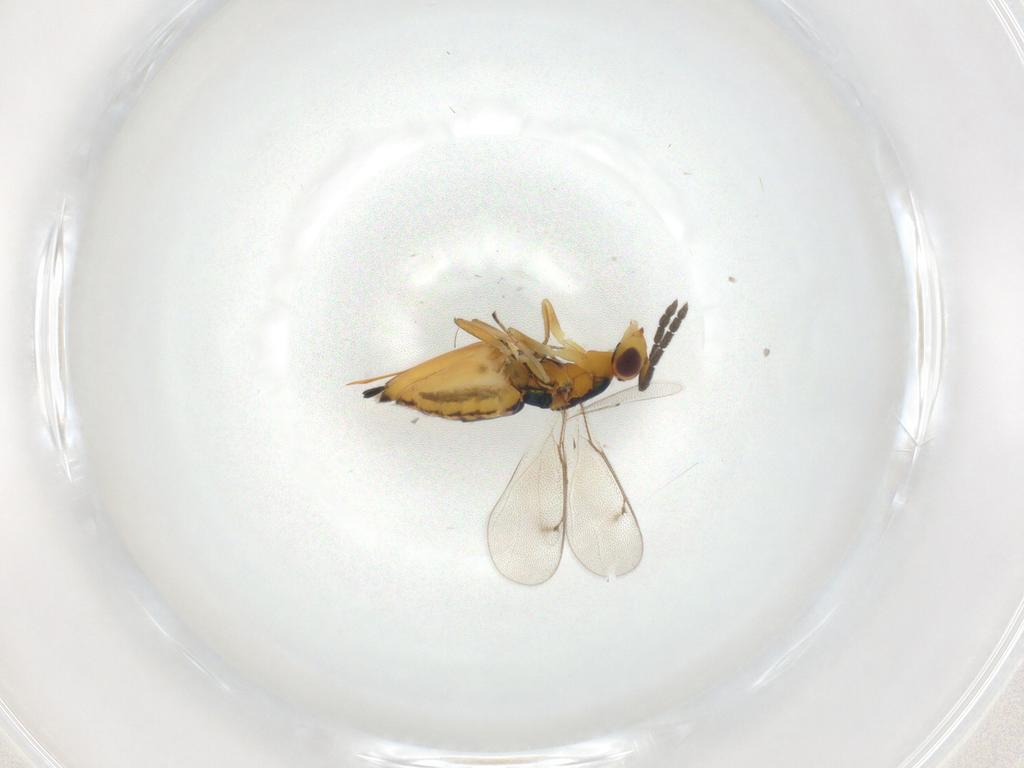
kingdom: Animalia
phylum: Arthropoda
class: Insecta
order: Hymenoptera
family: Eulophidae
